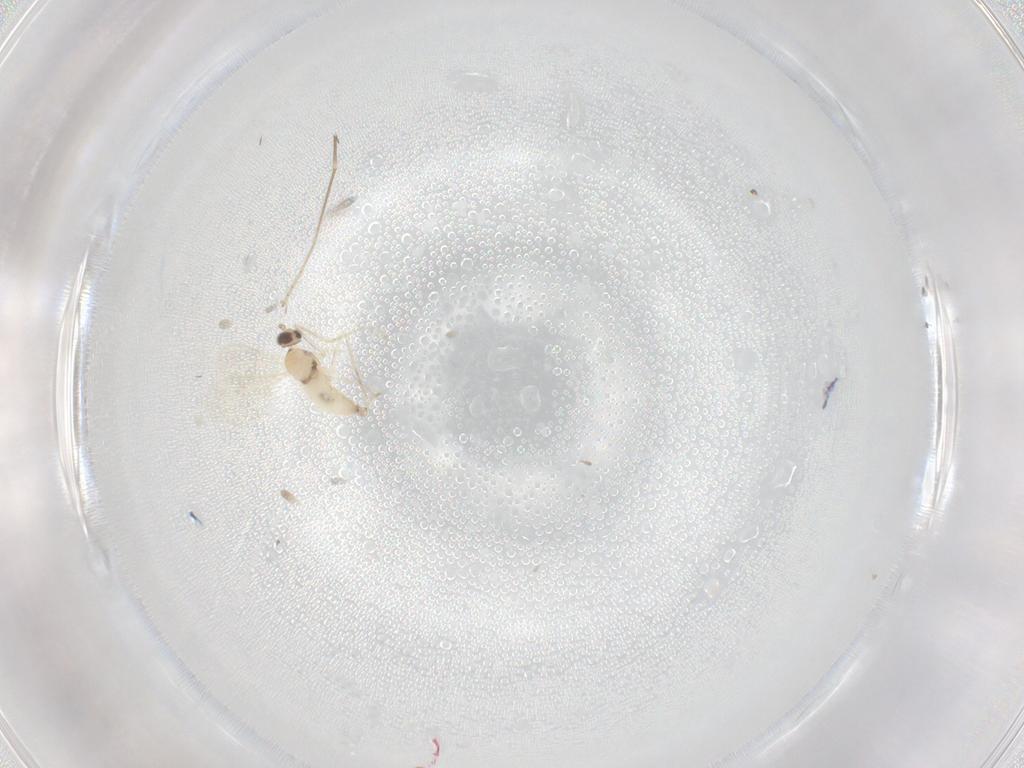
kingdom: Animalia
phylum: Arthropoda
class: Insecta
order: Diptera
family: Cecidomyiidae
